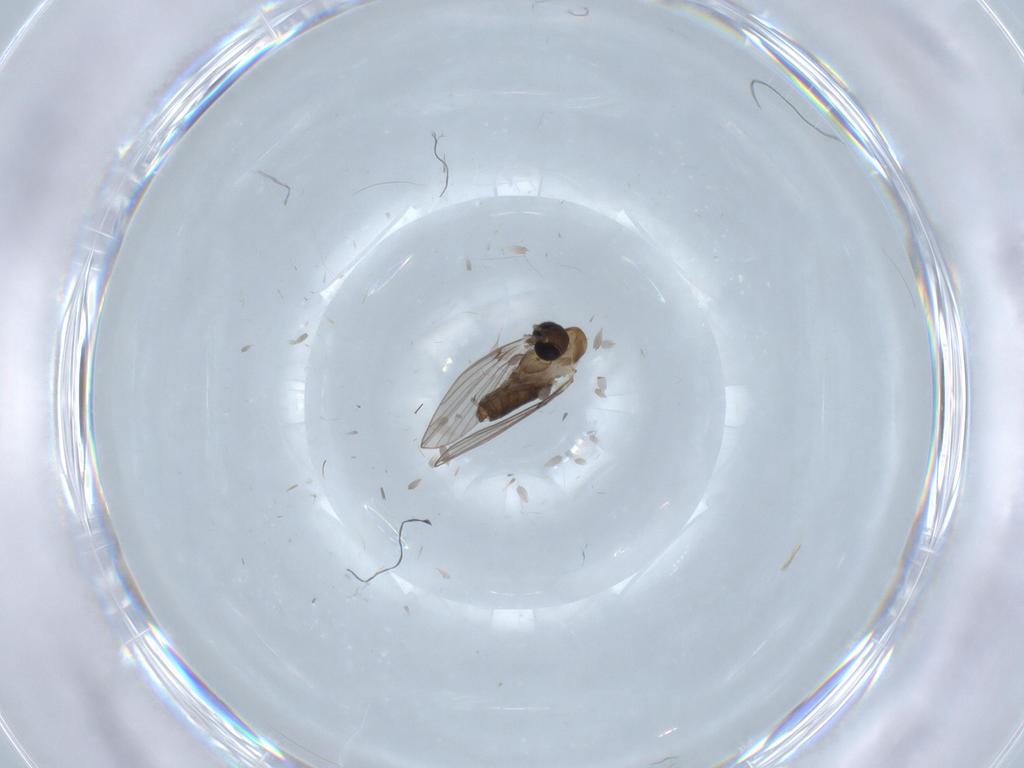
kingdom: Animalia
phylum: Arthropoda
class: Insecta
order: Diptera
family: Psychodidae
